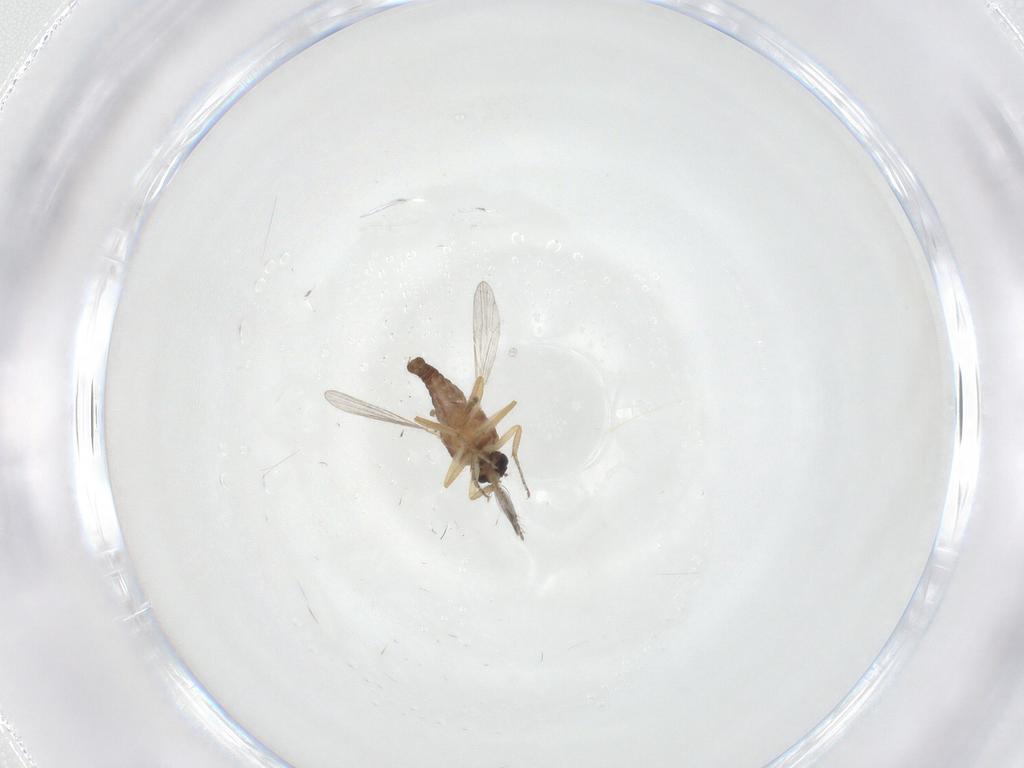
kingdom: Animalia
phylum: Arthropoda
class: Insecta
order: Diptera
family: Ceratopogonidae
